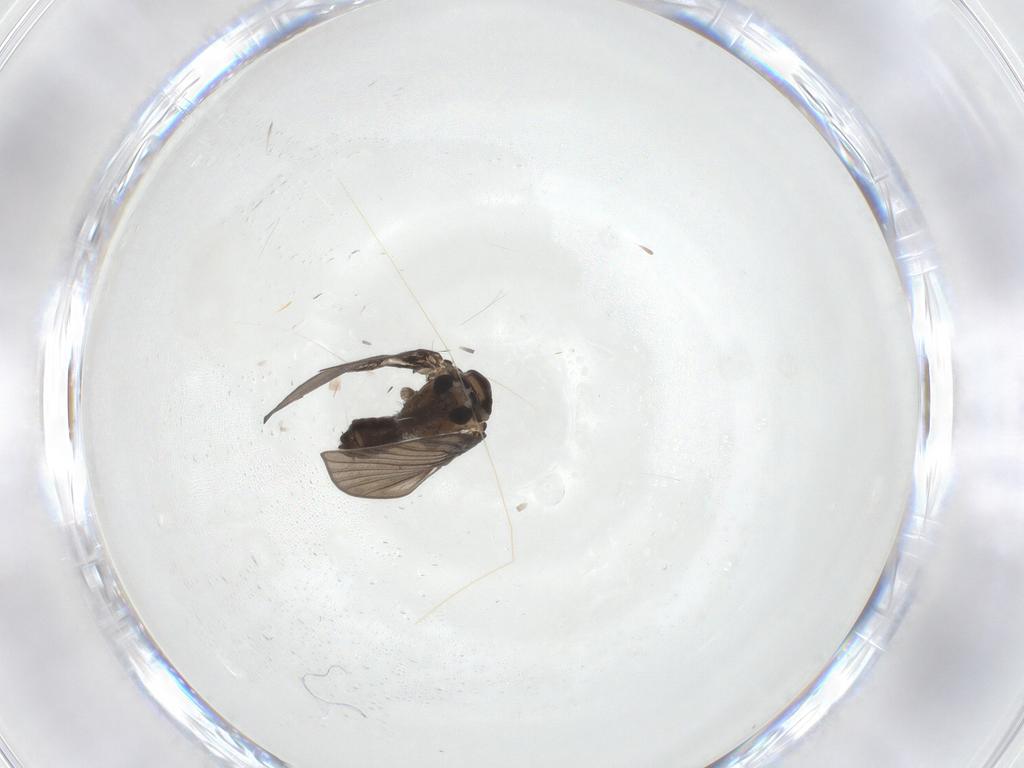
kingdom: Animalia
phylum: Arthropoda
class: Insecta
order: Diptera
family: Psychodidae
